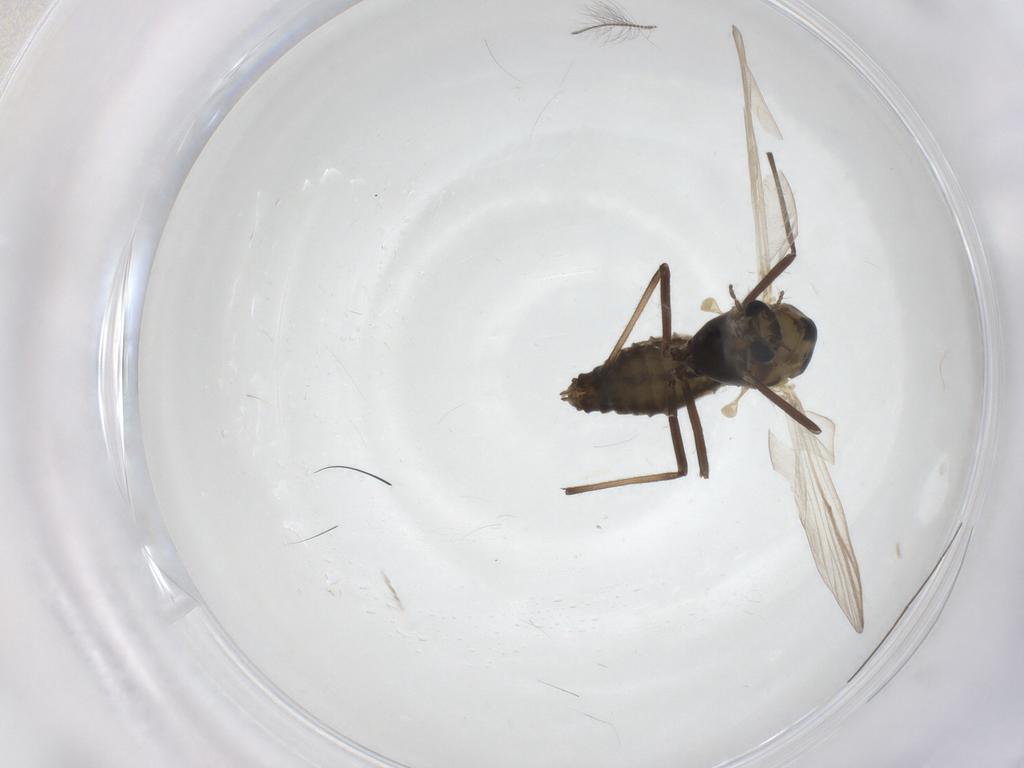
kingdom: Animalia
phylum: Arthropoda
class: Insecta
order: Diptera
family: Chironomidae
